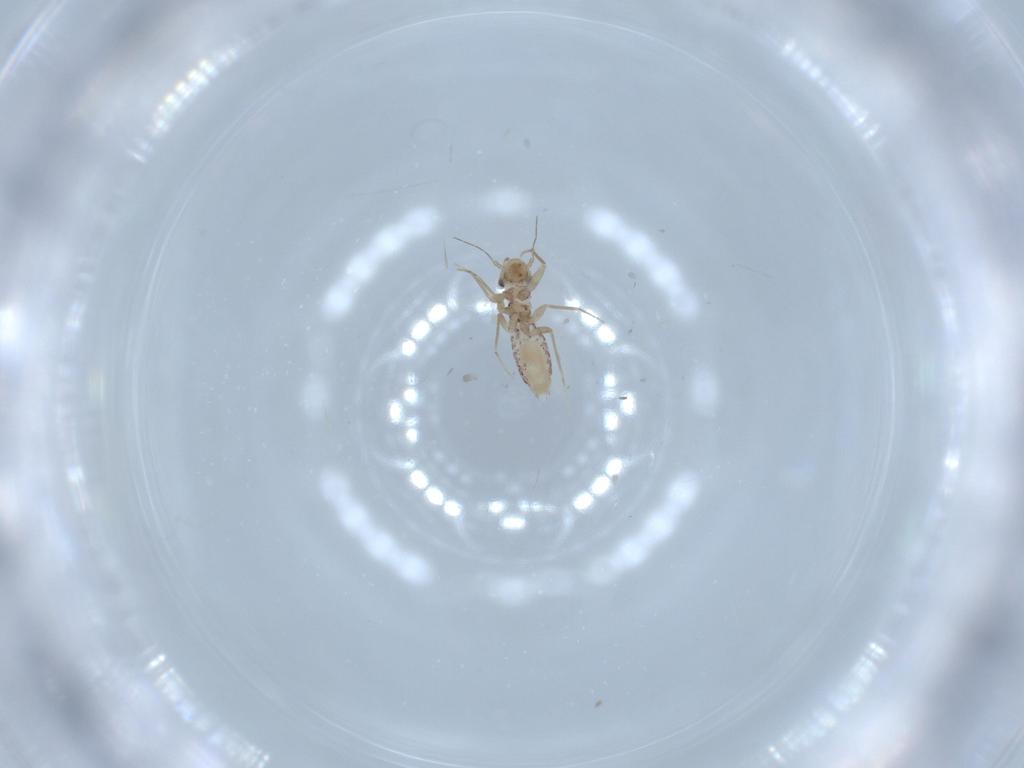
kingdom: Animalia
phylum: Arthropoda
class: Insecta
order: Psocodea
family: Lepidopsocidae
